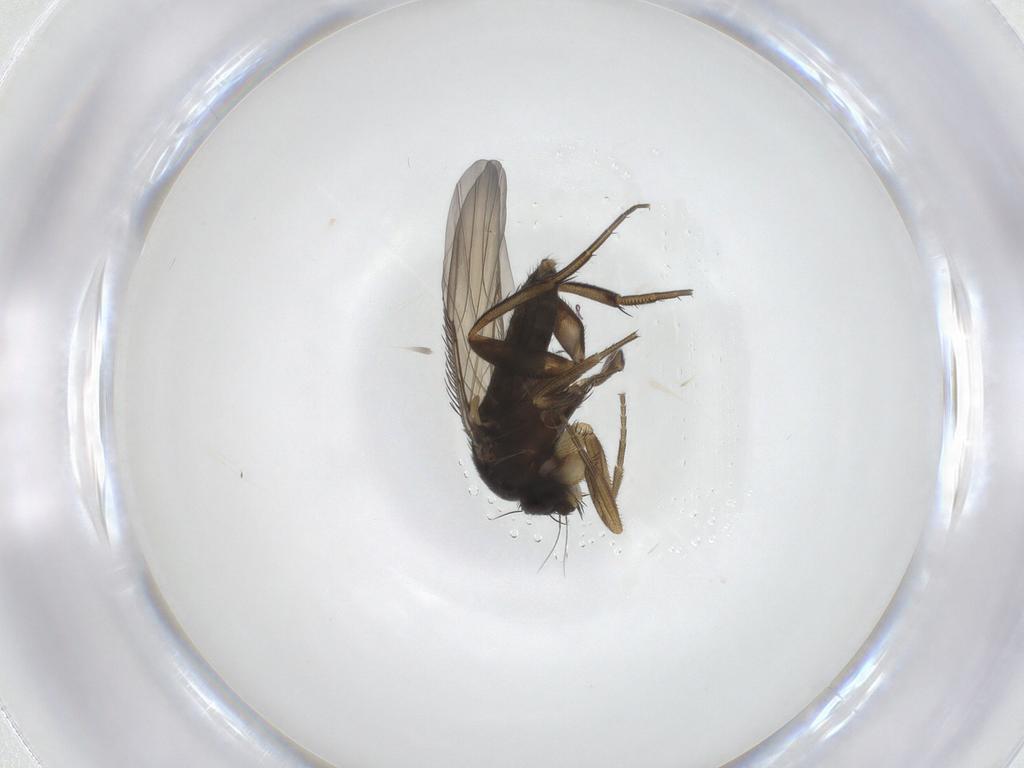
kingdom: Animalia
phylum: Arthropoda
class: Insecta
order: Diptera
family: Phoridae
